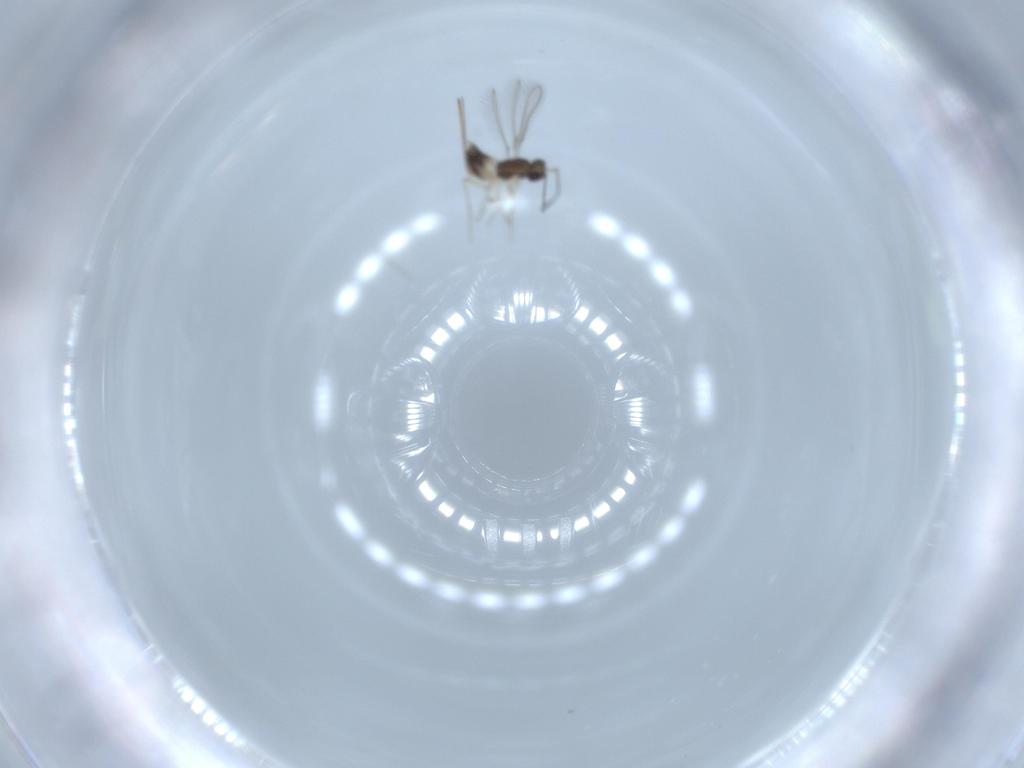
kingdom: Animalia
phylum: Arthropoda
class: Insecta
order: Hymenoptera
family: Mymaridae
